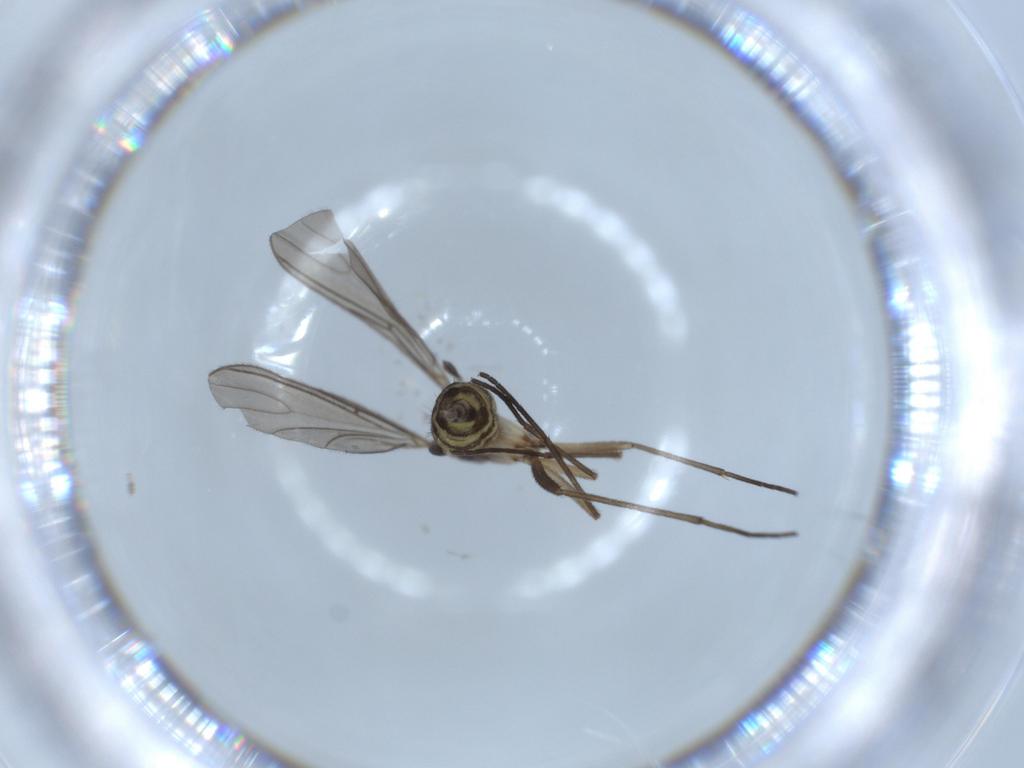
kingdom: Animalia
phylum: Arthropoda
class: Insecta
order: Diptera
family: Sciaridae
